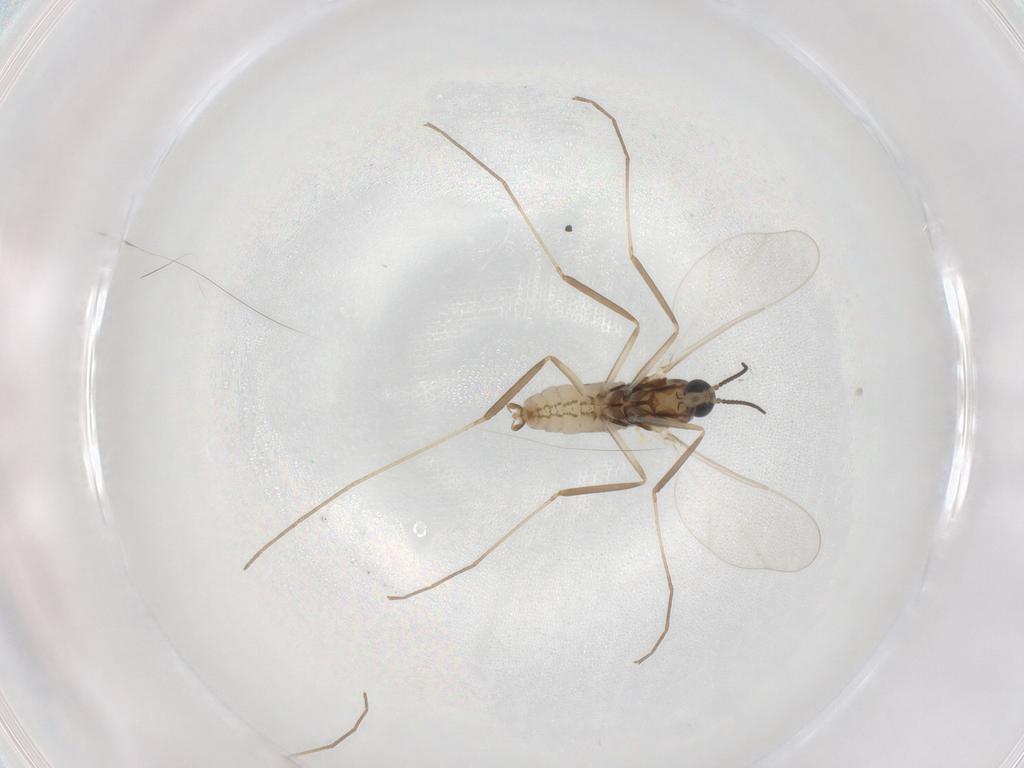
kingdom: Animalia
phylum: Arthropoda
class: Insecta
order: Diptera
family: Cecidomyiidae
